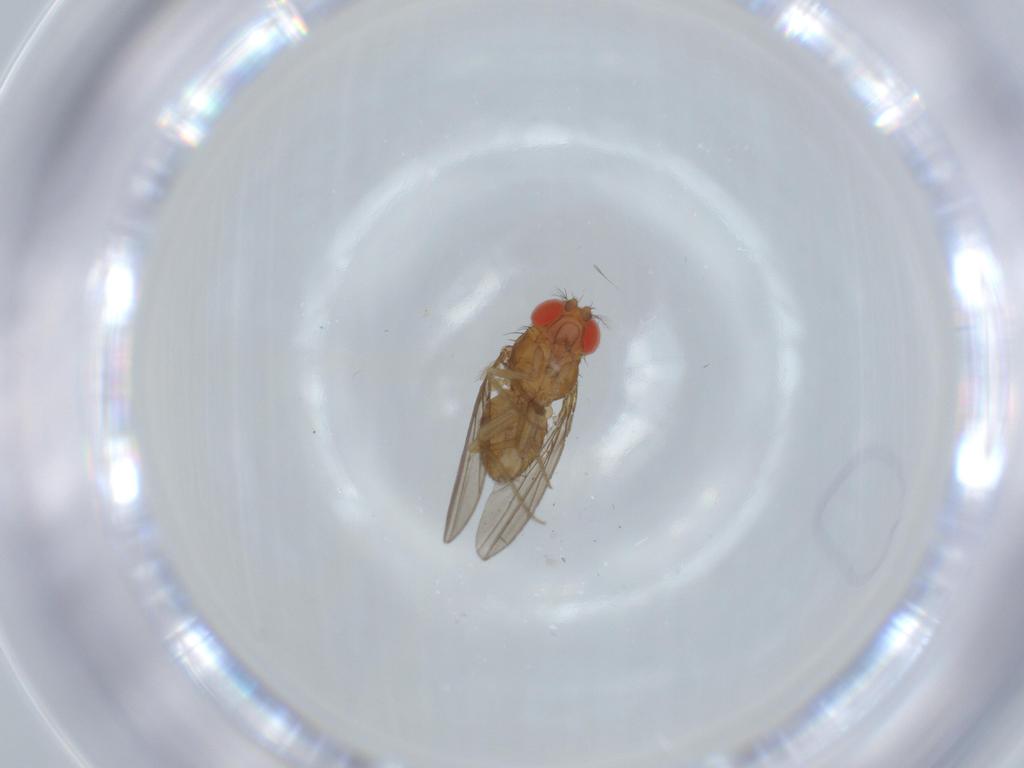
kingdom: Animalia
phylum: Arthropoda
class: Insecta
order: Diptera
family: Drosophilidae
